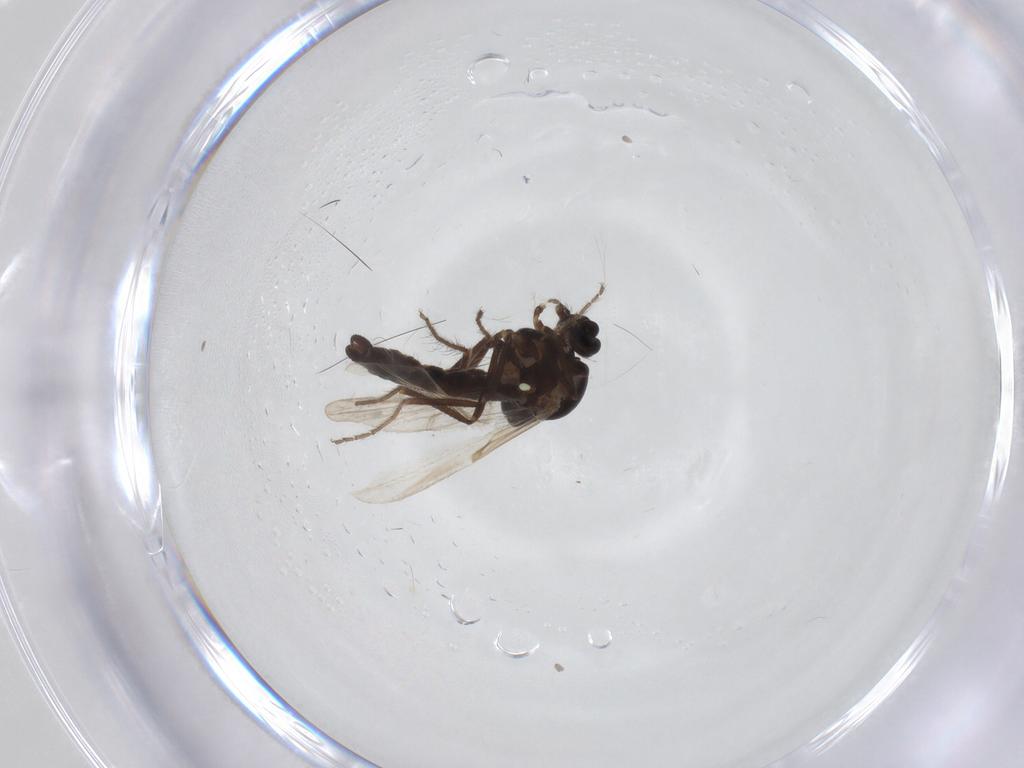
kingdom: Animalia
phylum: Arthropoda
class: Insecta
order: Diptera
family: Ceratopogonidae
